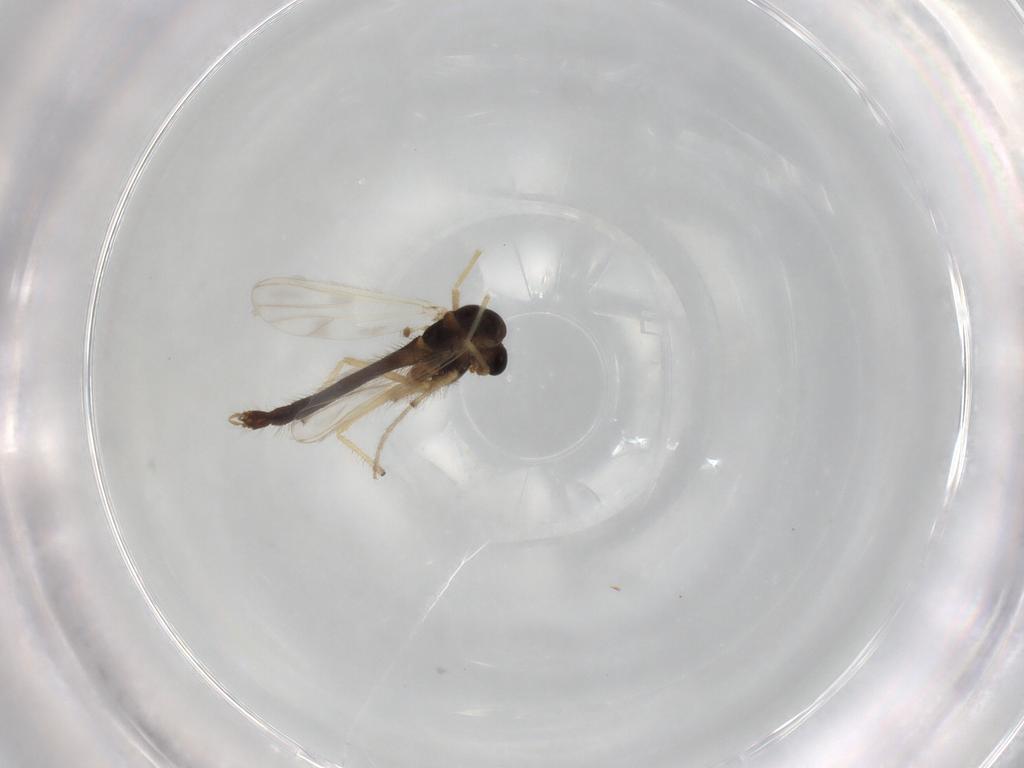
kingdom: Animalia
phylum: Arthropoda
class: Insecta
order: Diptera
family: Chironomidae
